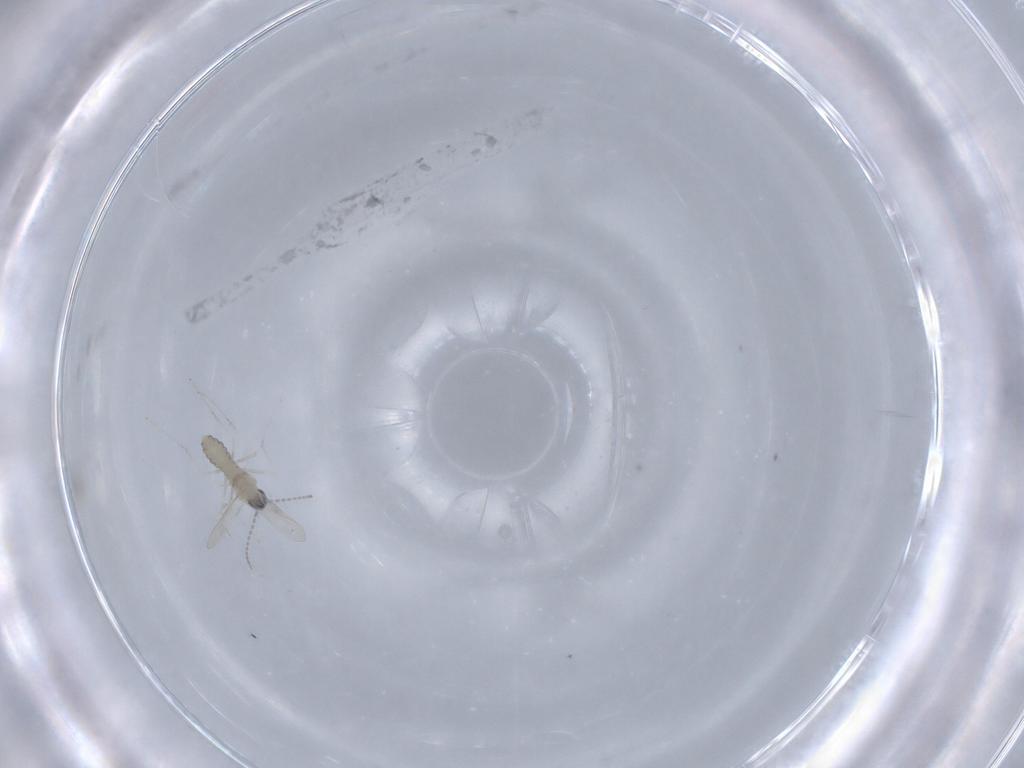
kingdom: Animalia
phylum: Arthropoda
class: Insecta
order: Diptera
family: Cecidomyiidae
